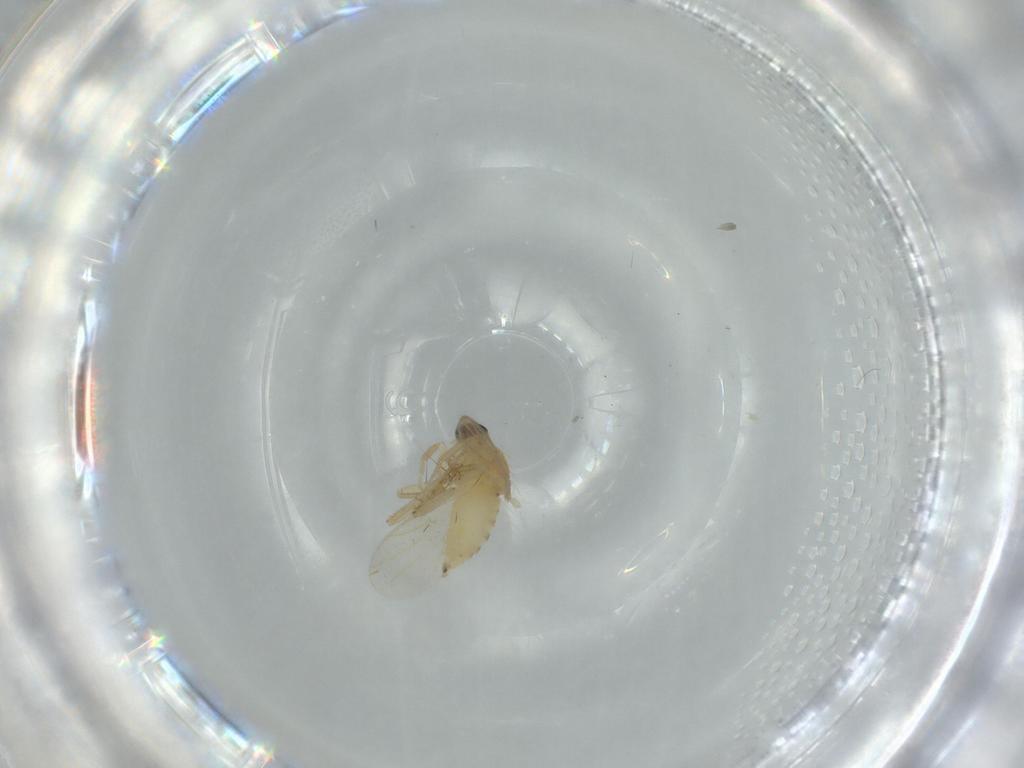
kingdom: Animalia
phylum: Arthropoda
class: Insecta
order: Diptera
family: Hybotidae
